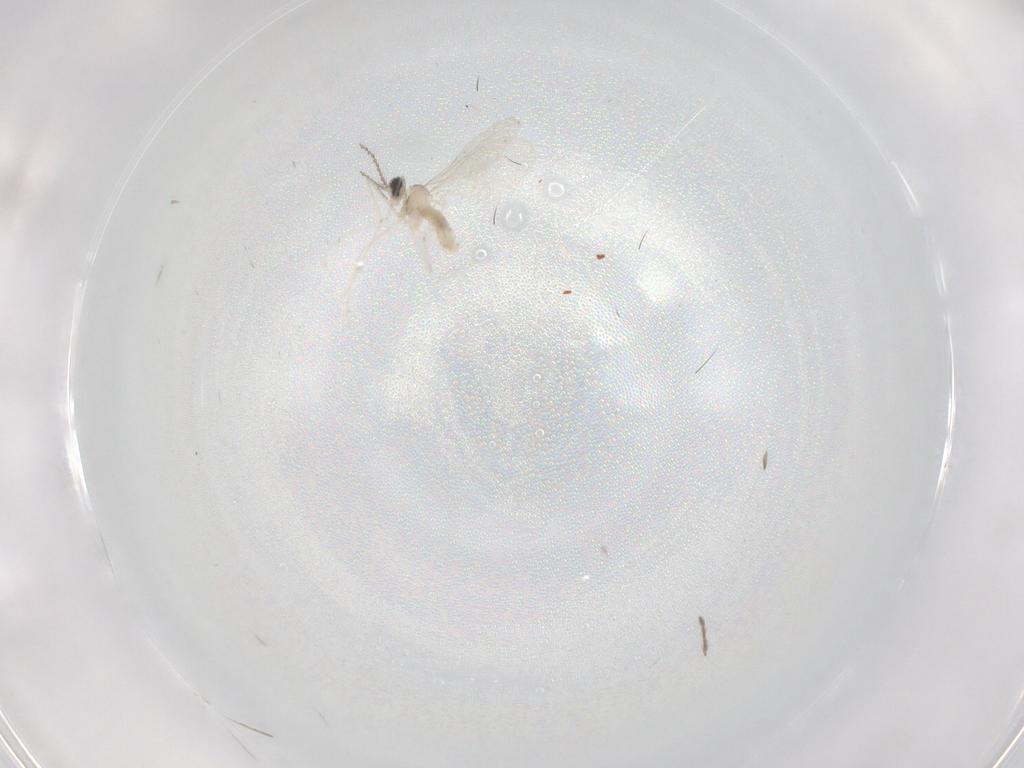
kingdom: Animalia
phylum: Arthropoda
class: Insecta
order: Diptera
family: Chironomidae
